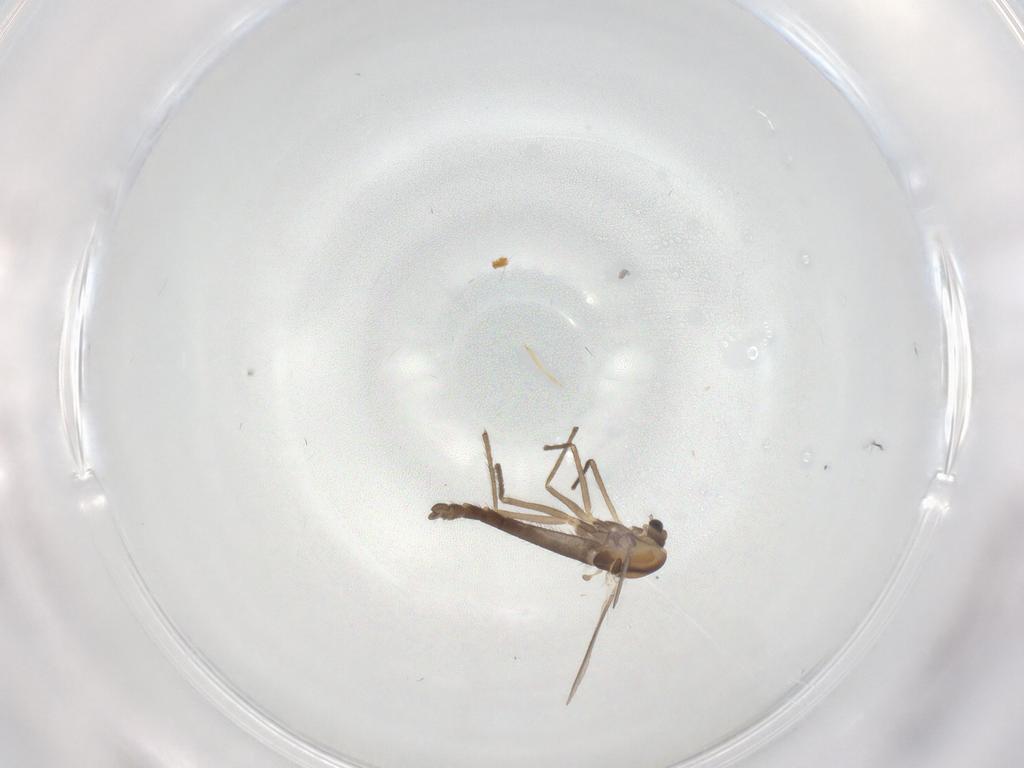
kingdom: Animalia
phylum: Arthropoda
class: Insecta
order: Diptera
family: Chironomidae
